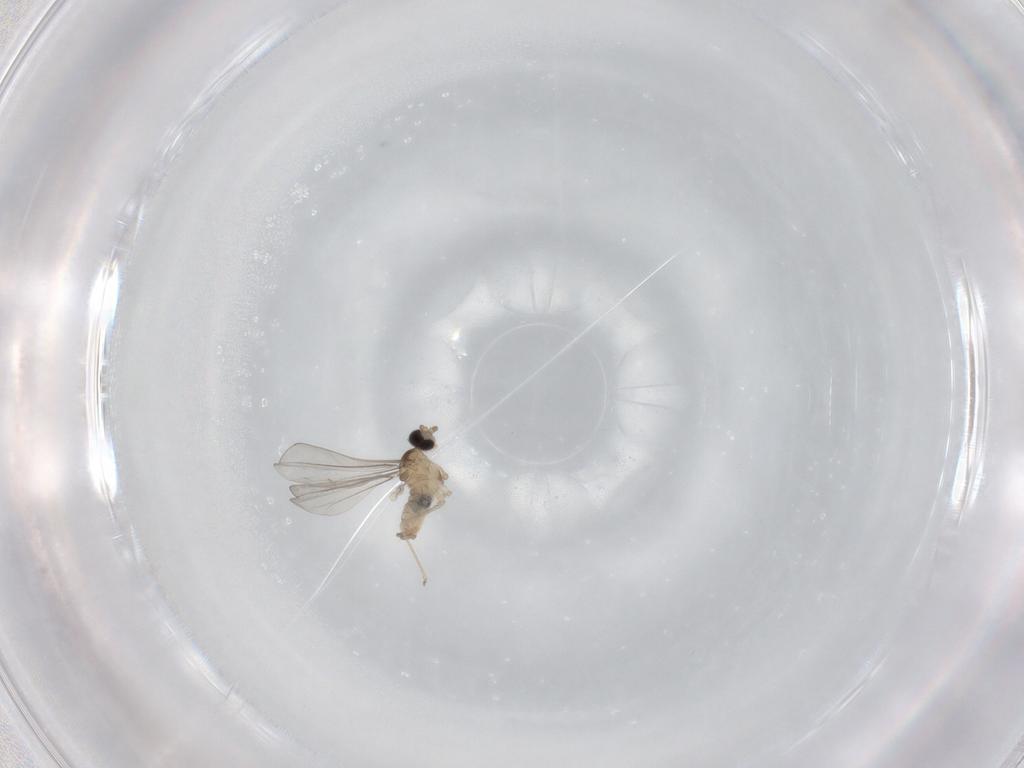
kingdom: Animalia
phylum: Arthropoda
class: Insecta
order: Diptera
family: Cecidomyiidae
